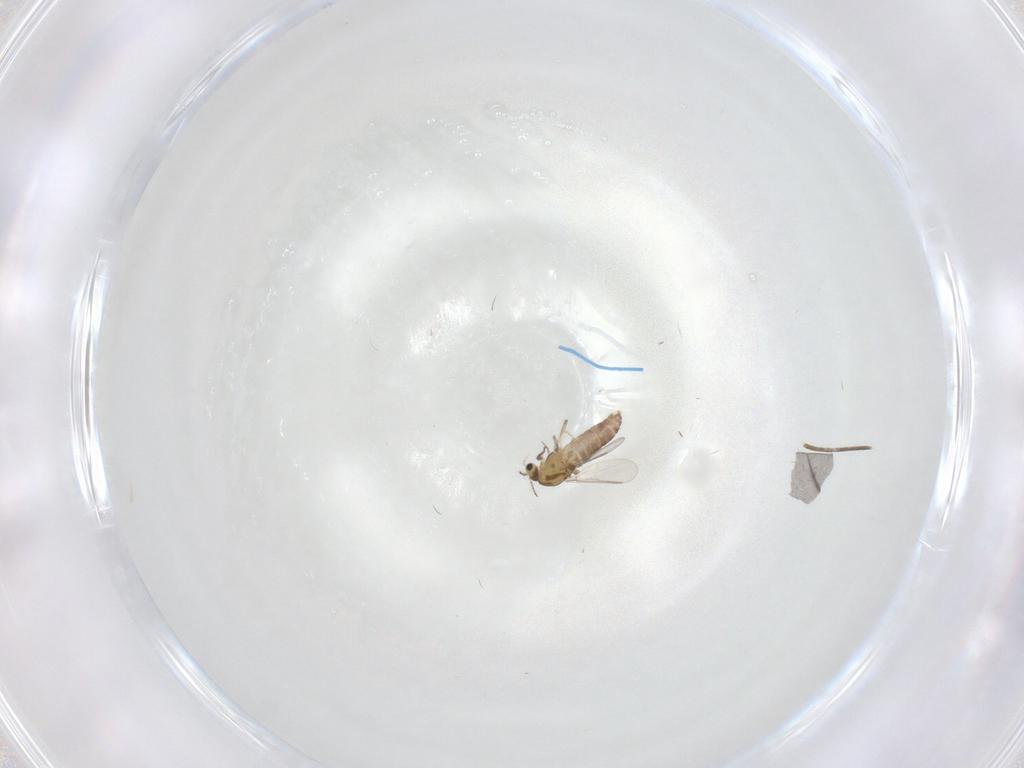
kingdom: Animalia
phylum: Arthropoda
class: Insecta
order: Diptera
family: Chironomidae
